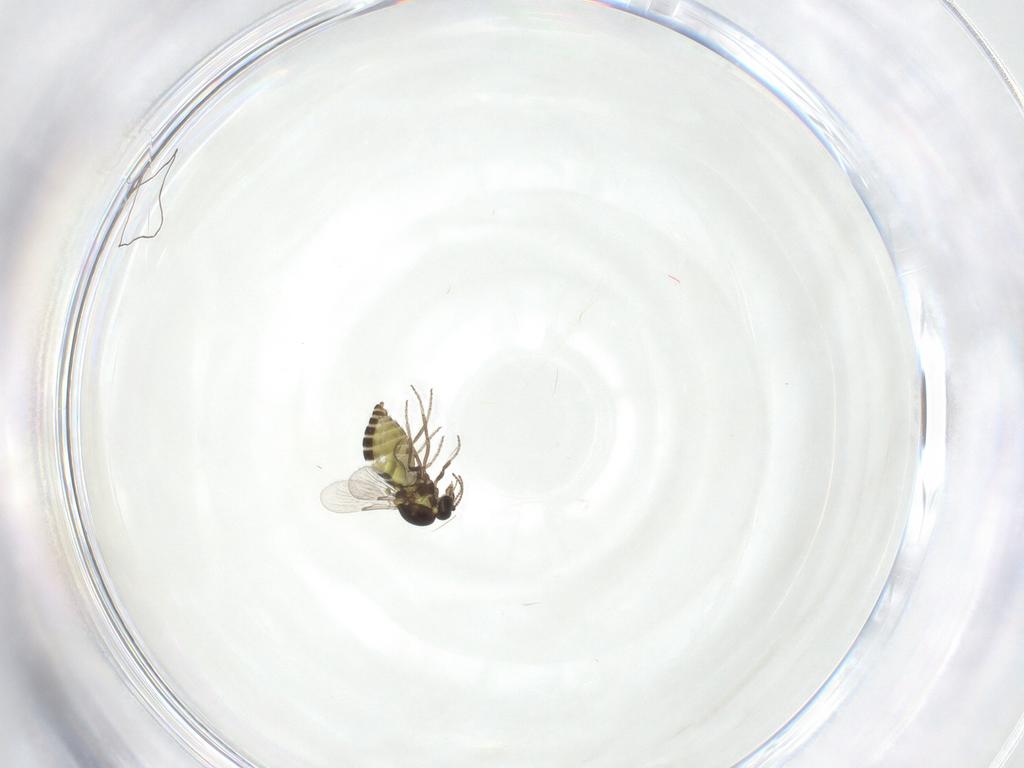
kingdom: Animalia
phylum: Arthropoda
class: Insecta
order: Diptera
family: Ceratopogonidae
